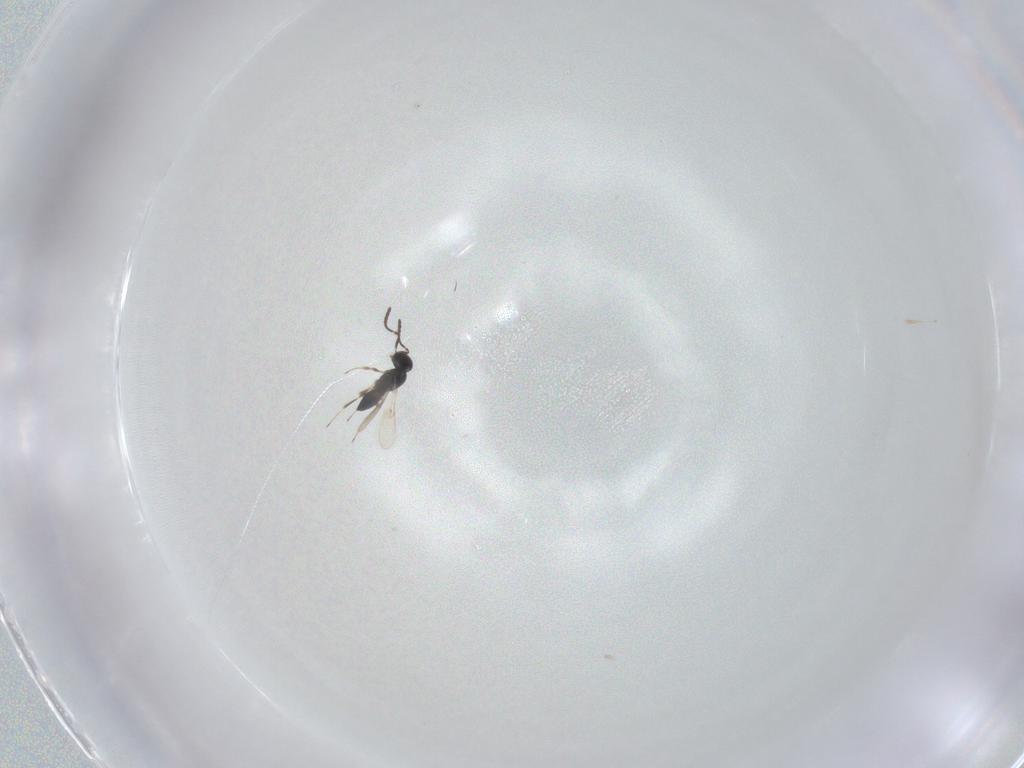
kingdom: Animalia
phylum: Arthropoda
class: Insecta
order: Hymenoptera
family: Scelionidae
